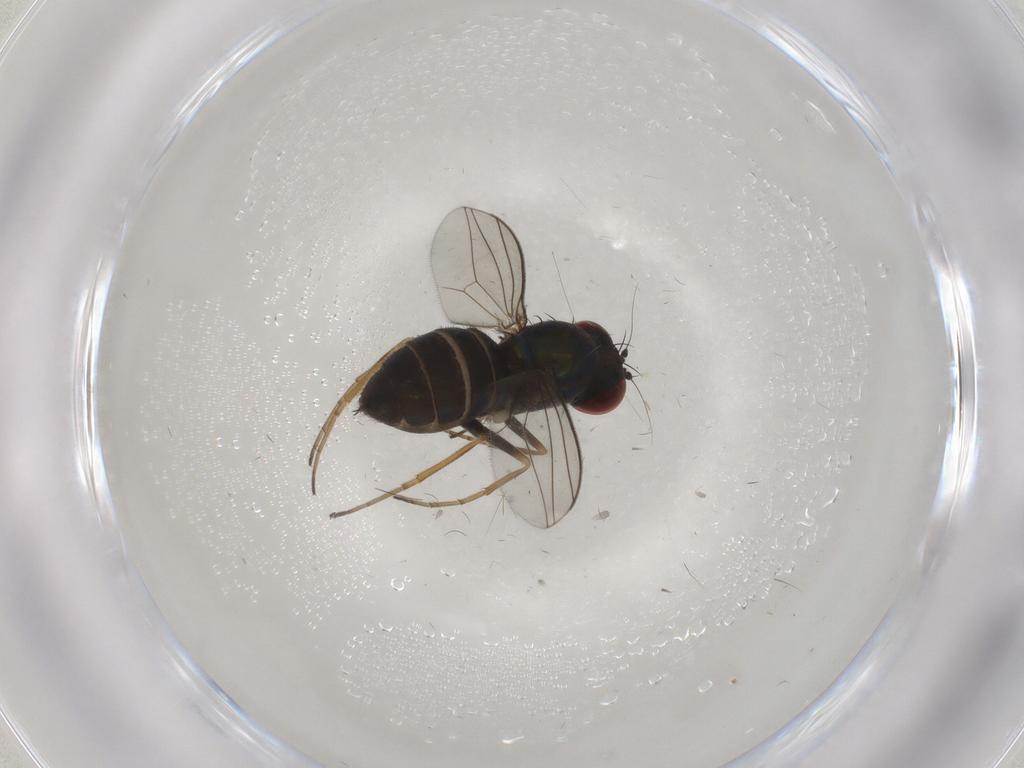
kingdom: Animalia
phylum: Arthropoda
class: Insecta
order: Diptera
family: Dolichopodidae
